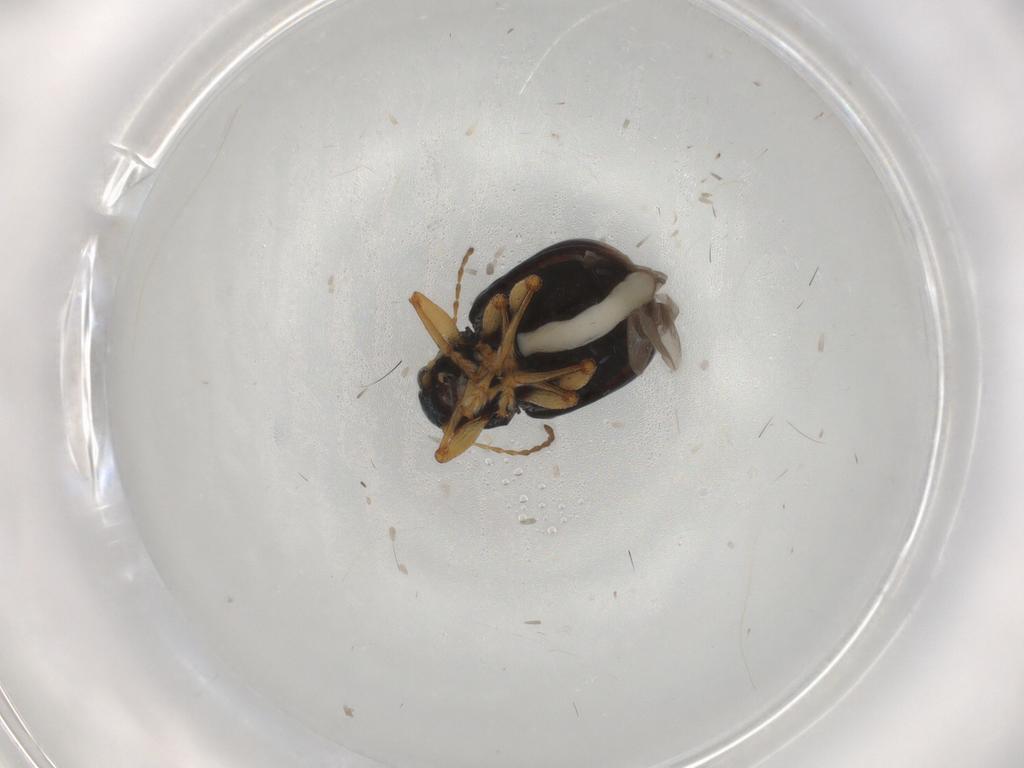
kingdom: Animalia
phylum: Arthropoda
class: Insecta
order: Coleoptera
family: Chrysomelidae
